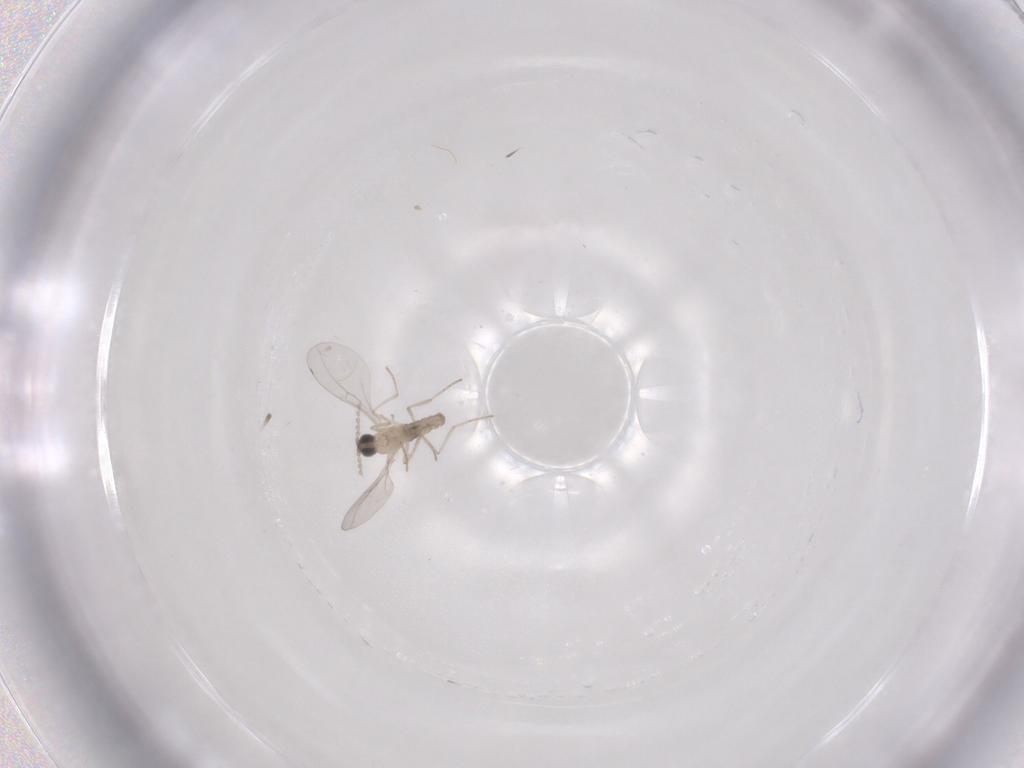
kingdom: Animalia
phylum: Arthropoda
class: Insecta
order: Diptera
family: Cecidomyiidae
